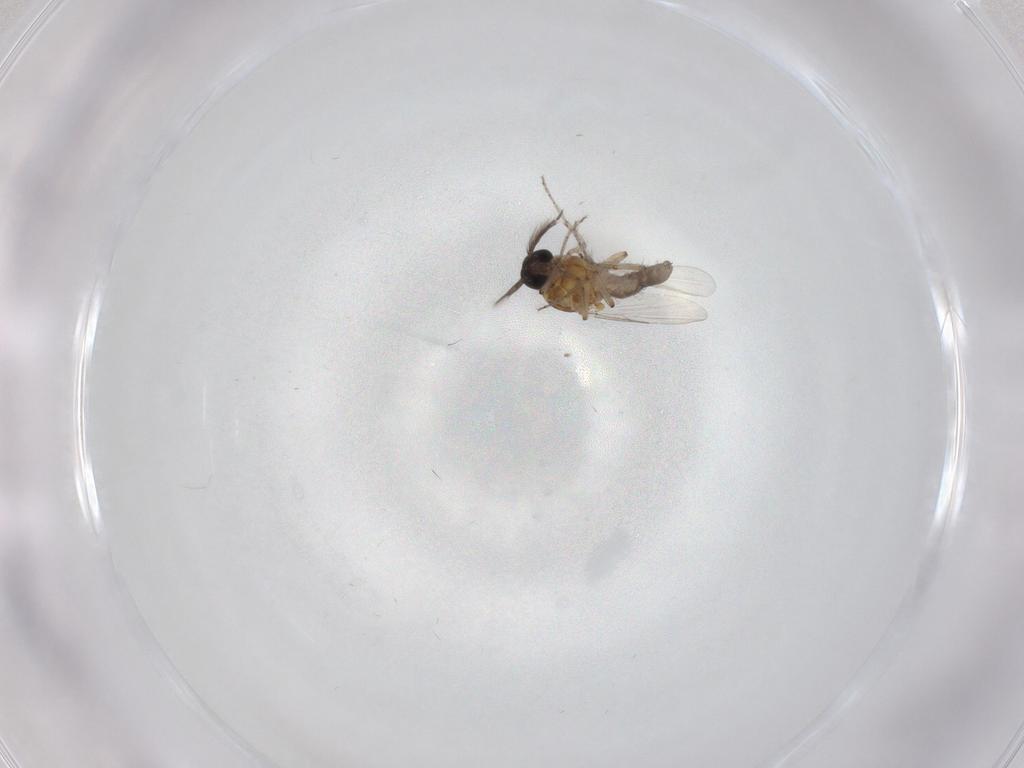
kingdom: Animalia
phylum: Arthropoda
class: Insecta
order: Diptera
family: Ceratopogonidae
